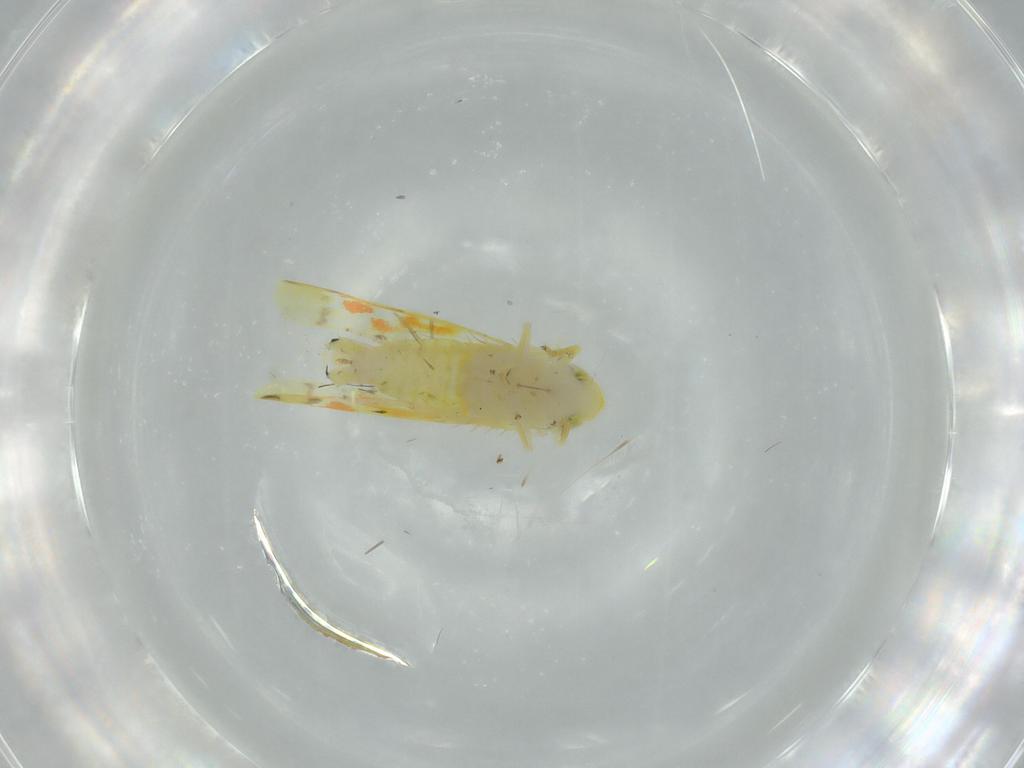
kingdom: Animalia
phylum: Arthropoda
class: Insecta
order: Hemiptera
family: Cicadellidae
